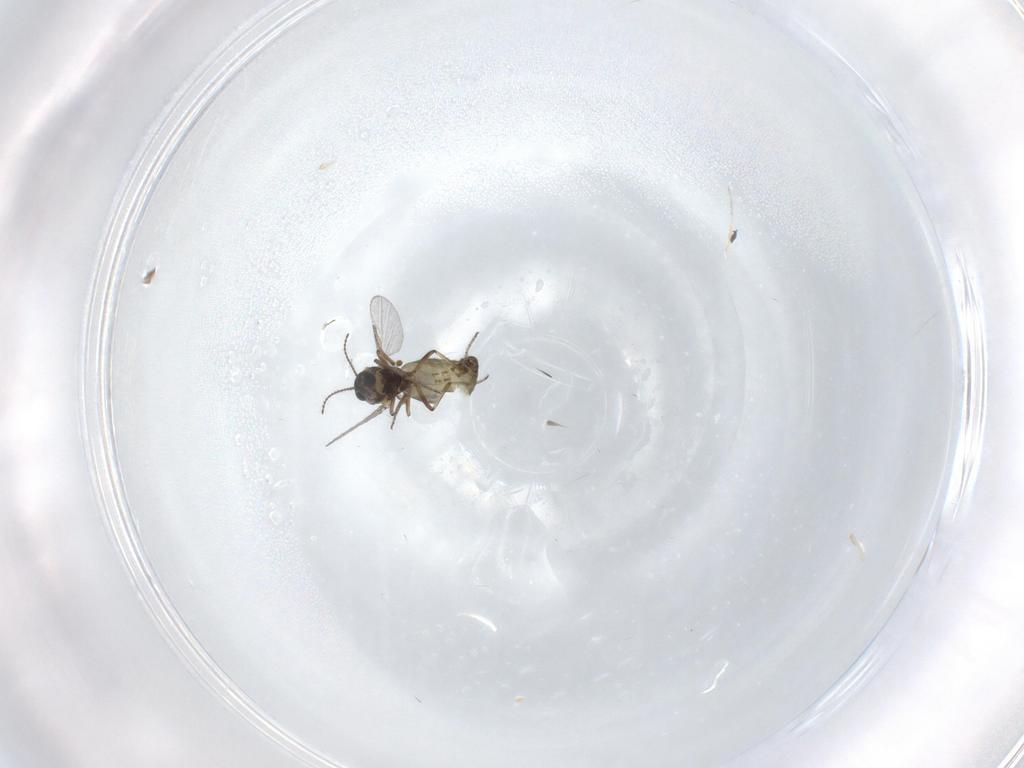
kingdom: Animalia
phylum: Arthropoda
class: Insecta
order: Diptera
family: Ceratopogonidae
